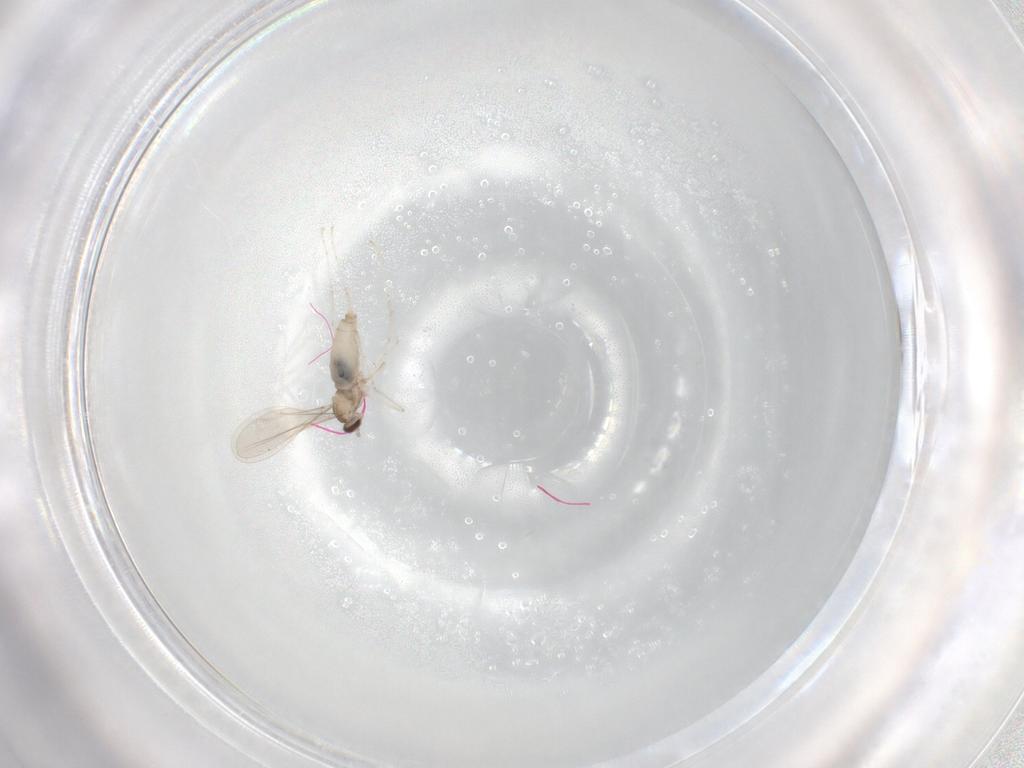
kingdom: Animalia
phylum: Arthropoda
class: Insecta
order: Diptera
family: Cecidomyiidae
